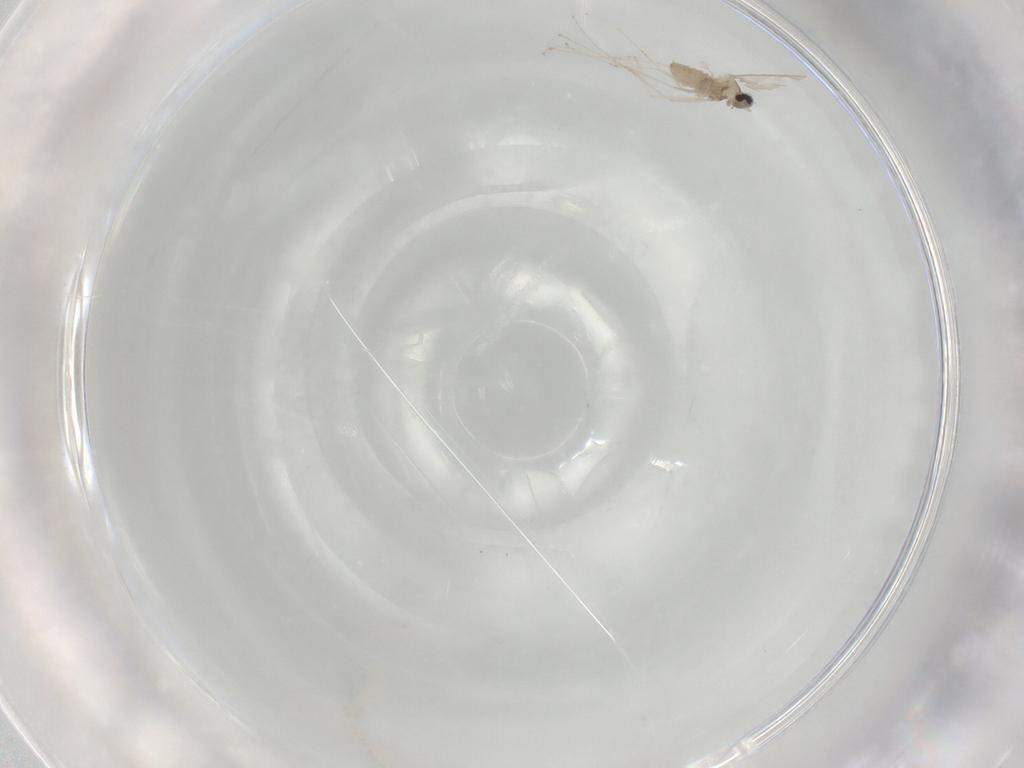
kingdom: Animalia
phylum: Arthropoda
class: Insecta
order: Diptera
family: Cecidomyiidae
